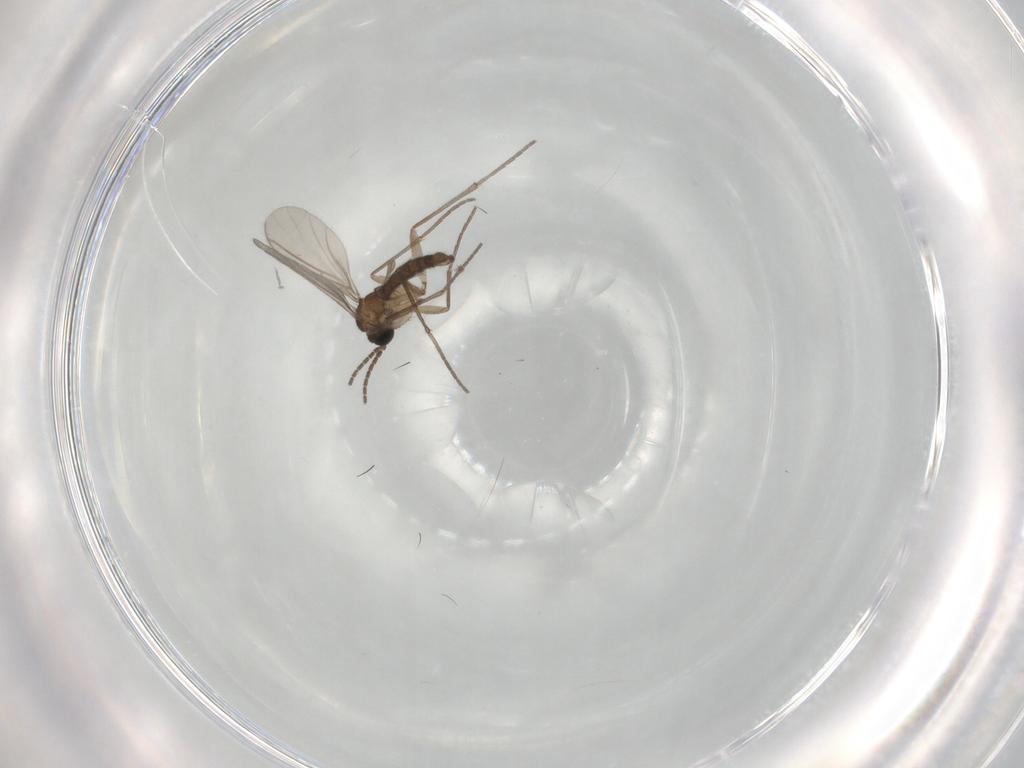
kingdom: Animalia
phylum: Arthropoda
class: Insecta
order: Diptera
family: Sciaridae
